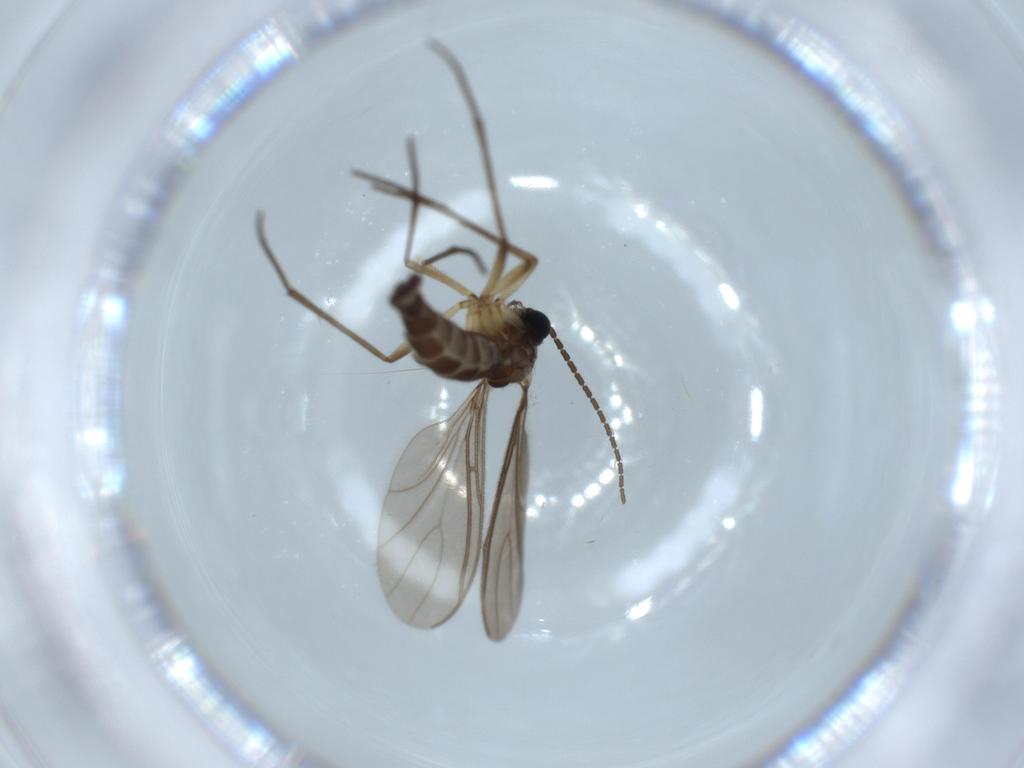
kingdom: Animalia
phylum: Arthropoda
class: Insecta
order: Diptera
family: Sciaridae
